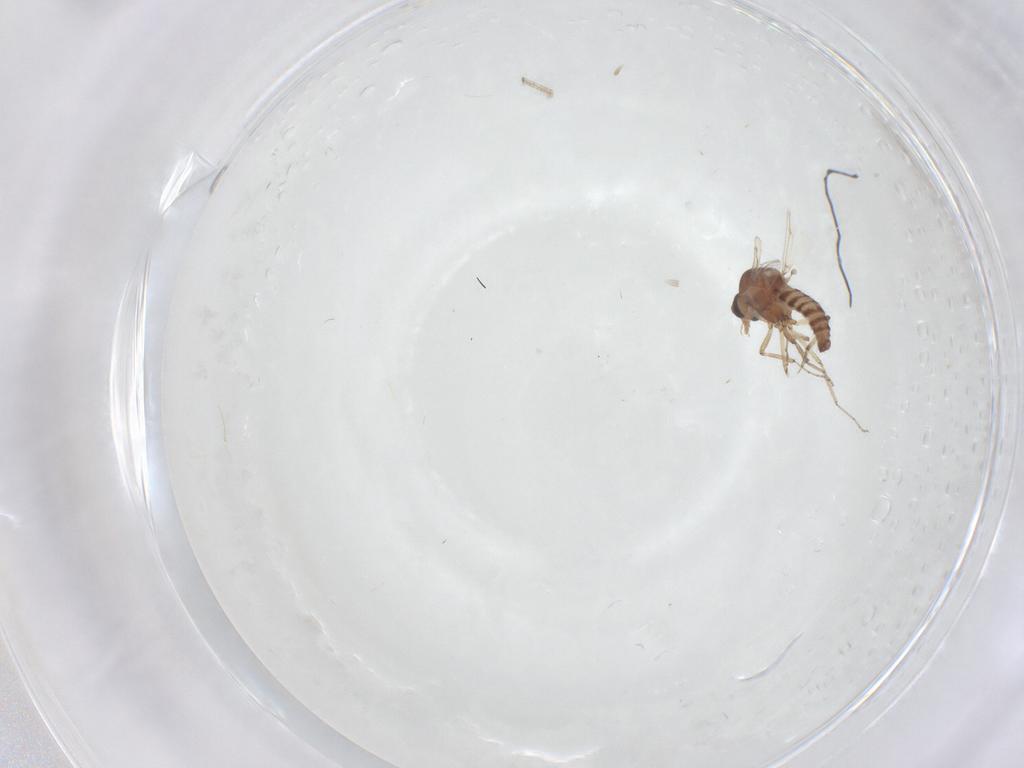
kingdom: Animalia
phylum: Arthropoda
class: Insecta
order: Diptera
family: Ceratopogonidae
